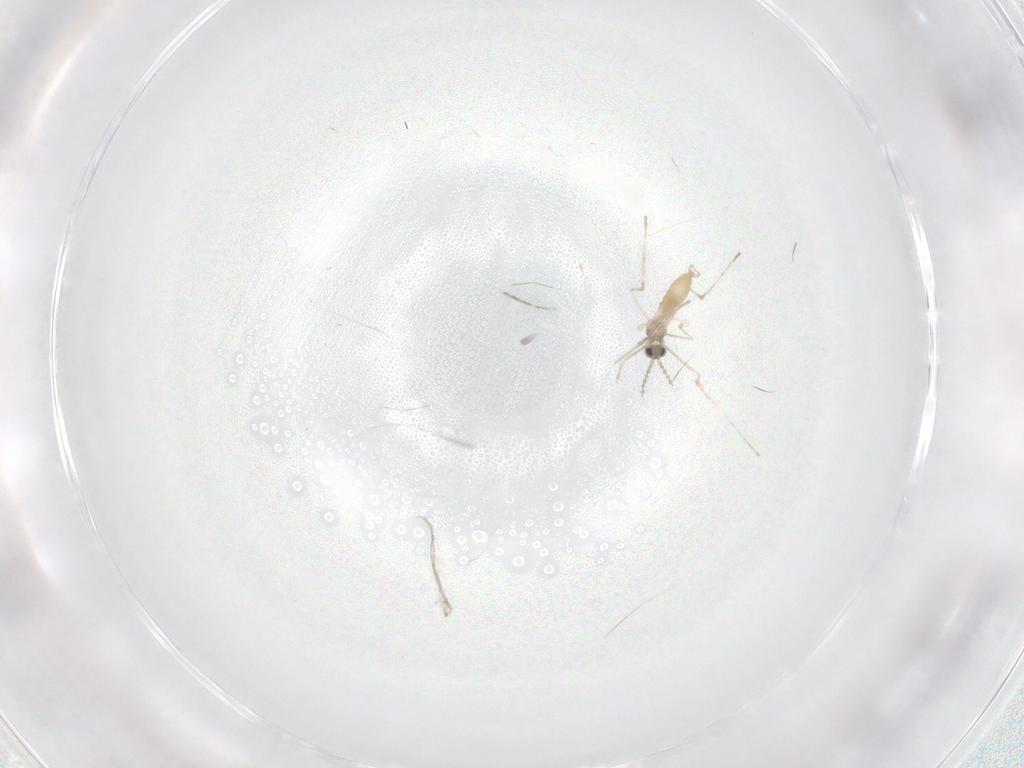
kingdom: Animalia
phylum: Arthropoda
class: Insecta
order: Diptera
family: Cecidomyiidae
